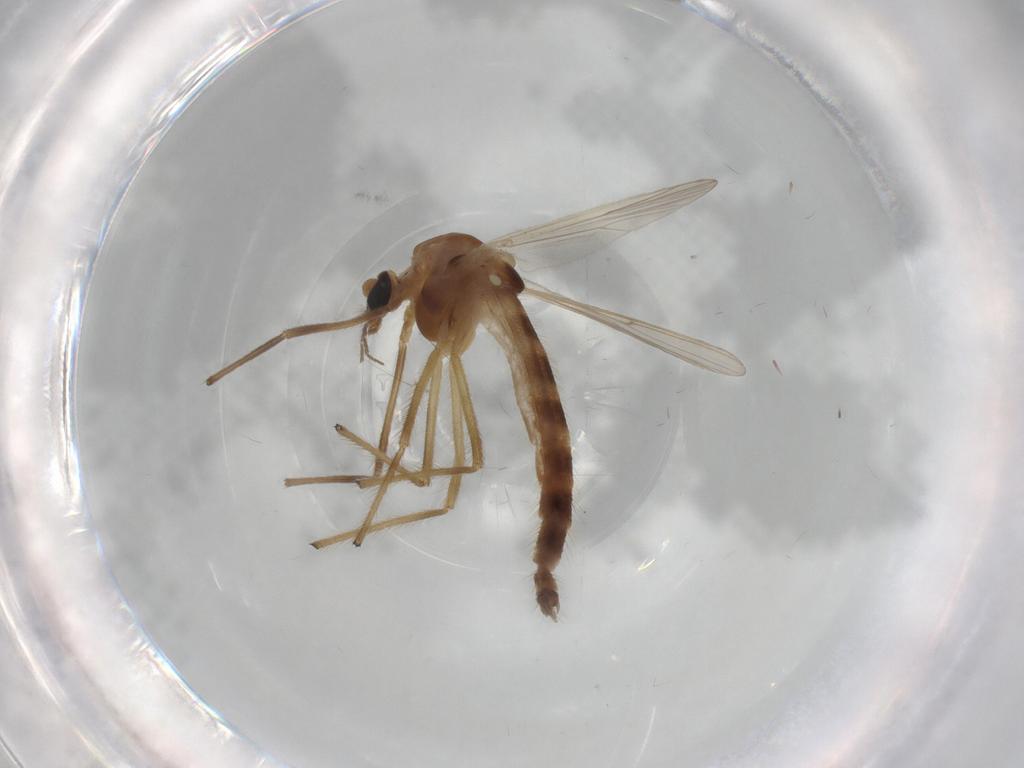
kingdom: Animalia
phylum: Arthropoda
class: Insecta
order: Diptera
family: Chironomidae
